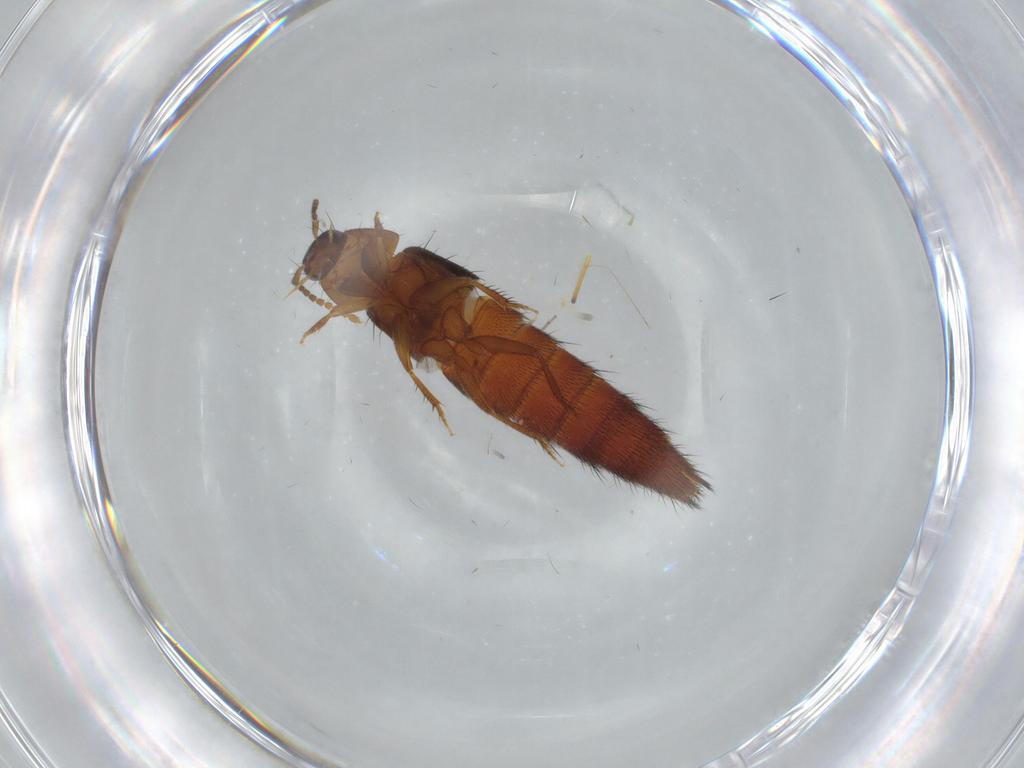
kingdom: Animalia
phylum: Arthropoda
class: Insecta
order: Coleoptera
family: Staphylinidae
